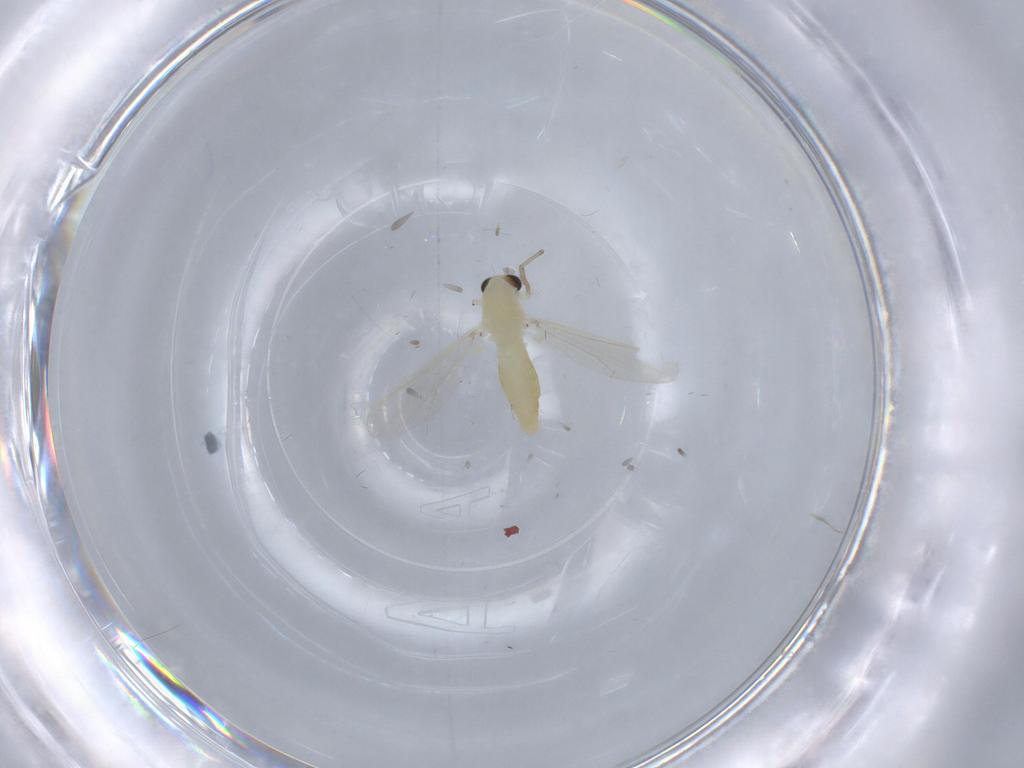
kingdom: Animalia
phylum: Arthropoda
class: Insecta
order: Diptera
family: Chironomidae
